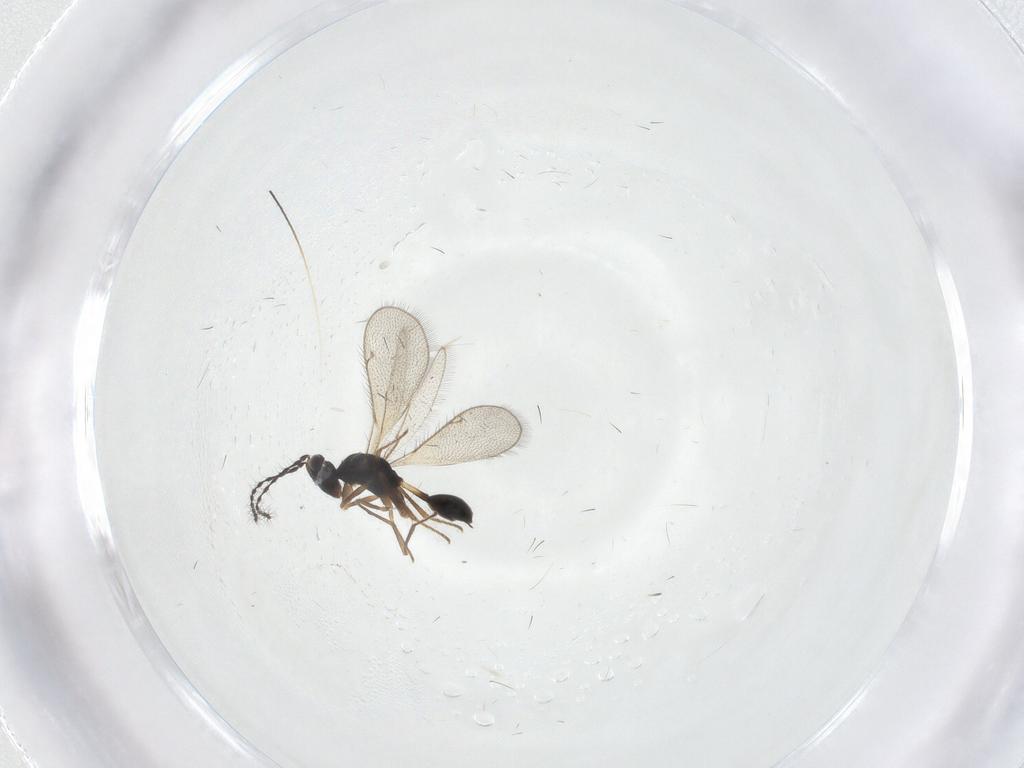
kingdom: Animalia
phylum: Arthropoda
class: Insecta
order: Hymenoptera
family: Diparidae
